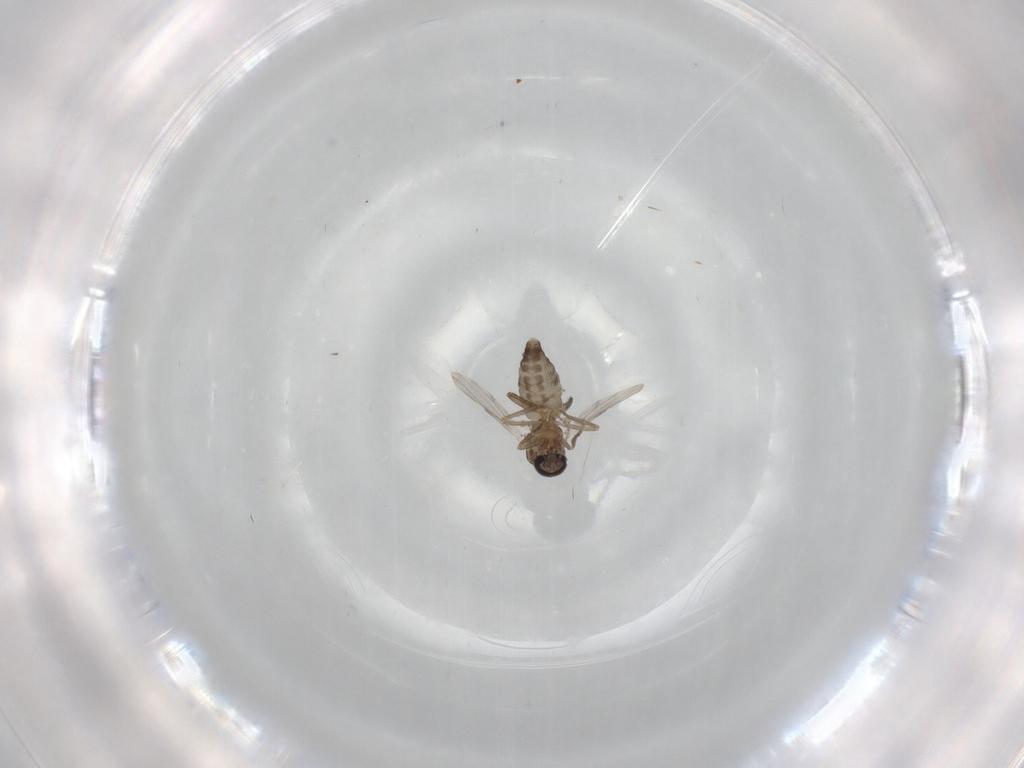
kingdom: Animalia
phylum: Arthropoda
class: Insecta
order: Diptera
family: Ceratopogonidae
